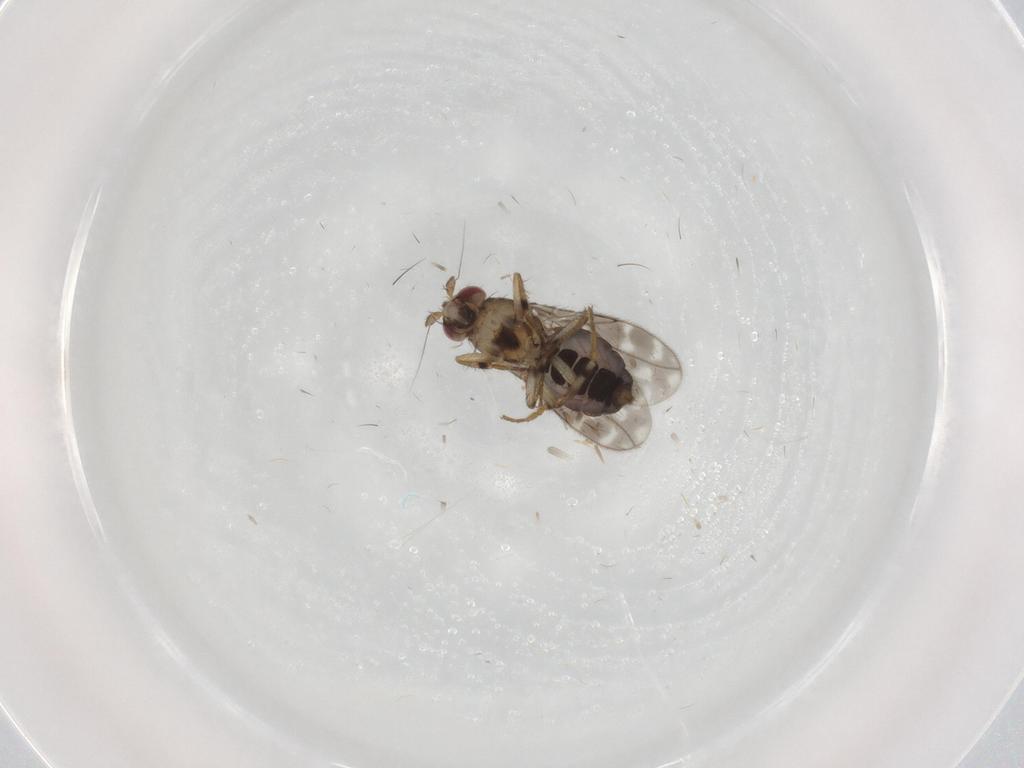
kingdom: Animalia
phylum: Arthropoda
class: Insecta
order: Diptera
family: Sphaeroceridae
